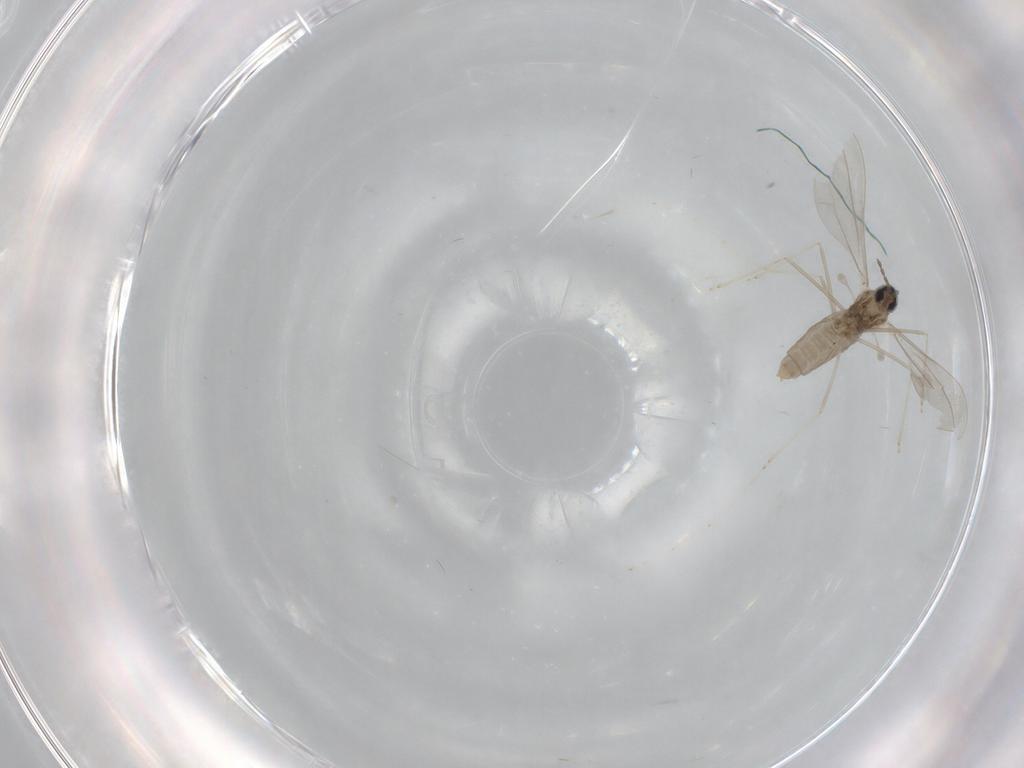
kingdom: Animalia
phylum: Arthropoda
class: Insecta
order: Diptera
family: Cecidomyiidae
